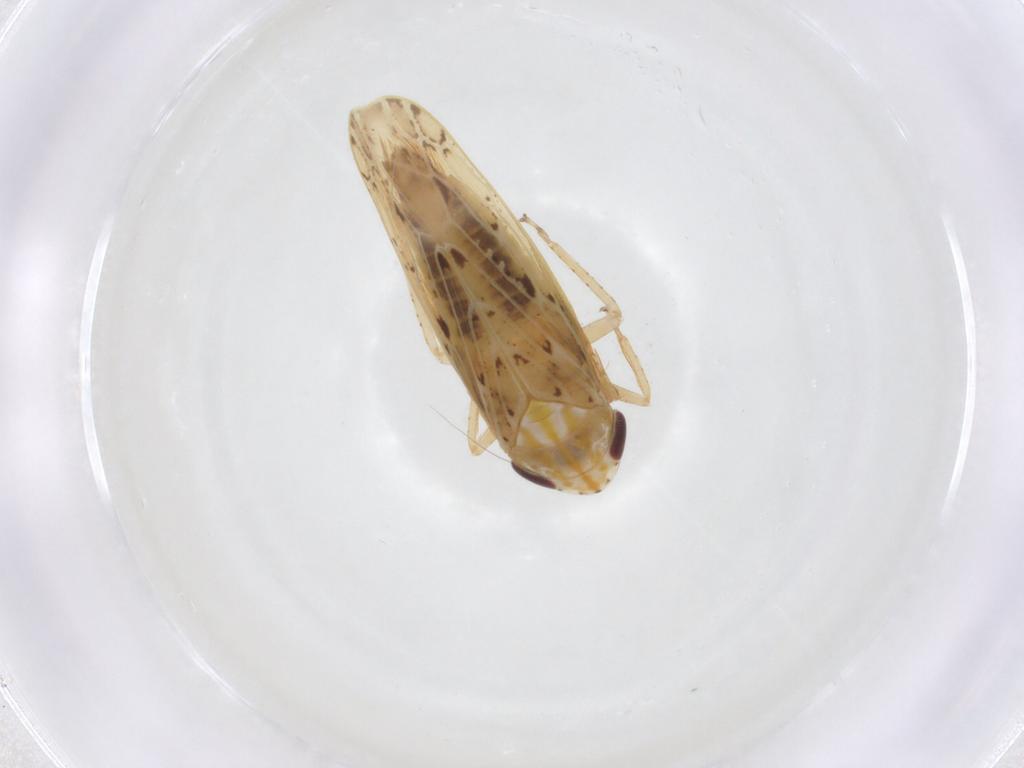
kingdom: Animalia
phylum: Arthropoda
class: Insecta
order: Hemiptera
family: Cicadellidae
